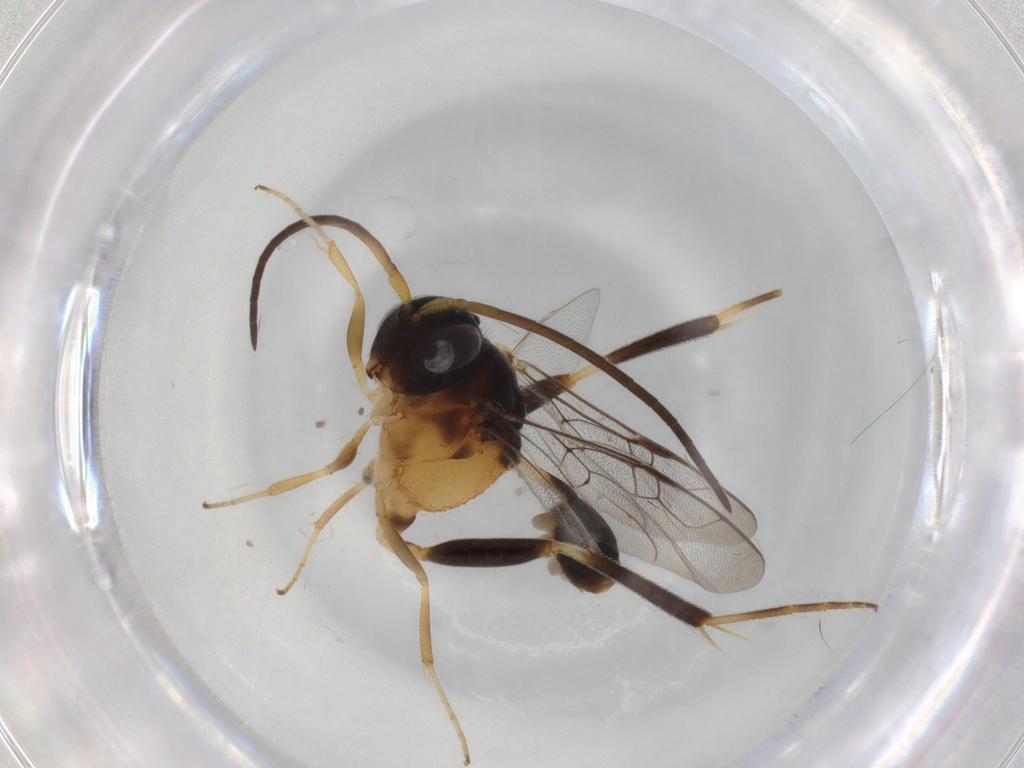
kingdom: Animalia
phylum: Arthropoda
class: Insecta
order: Hymenoptera
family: Evaniidae
